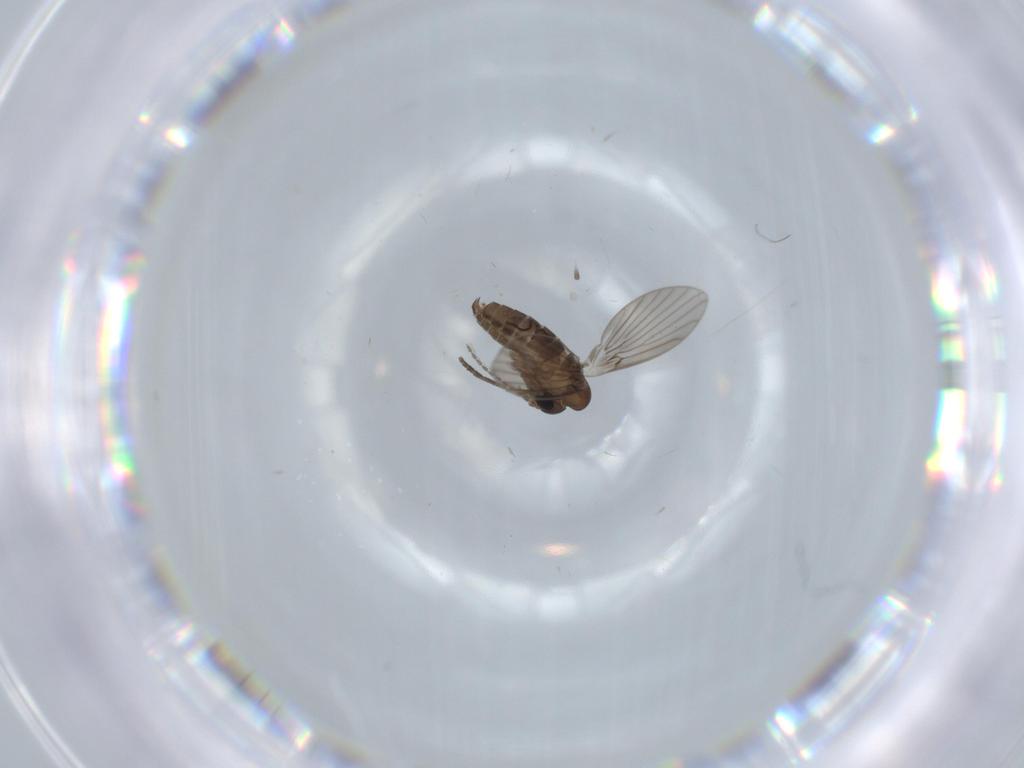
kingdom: Animalia
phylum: Arthropoda
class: Insecta
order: Diptera
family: Psychodidae
